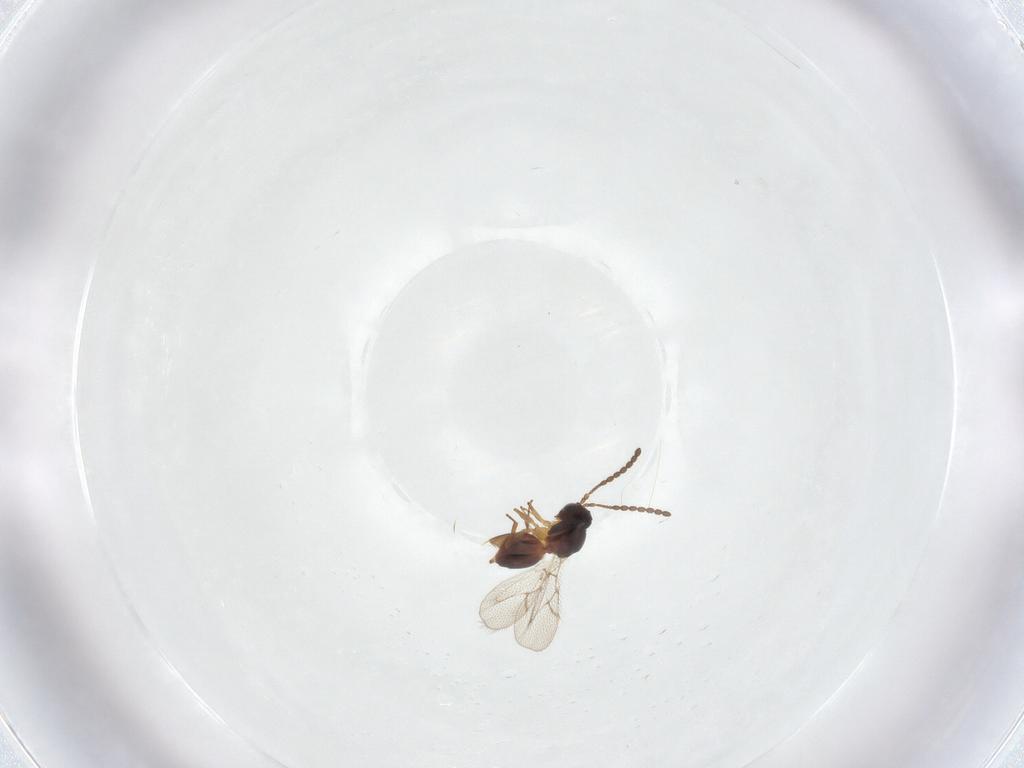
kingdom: Animalia
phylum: Arthropoda
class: Insecta
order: Hymenoptera
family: Figitidae
